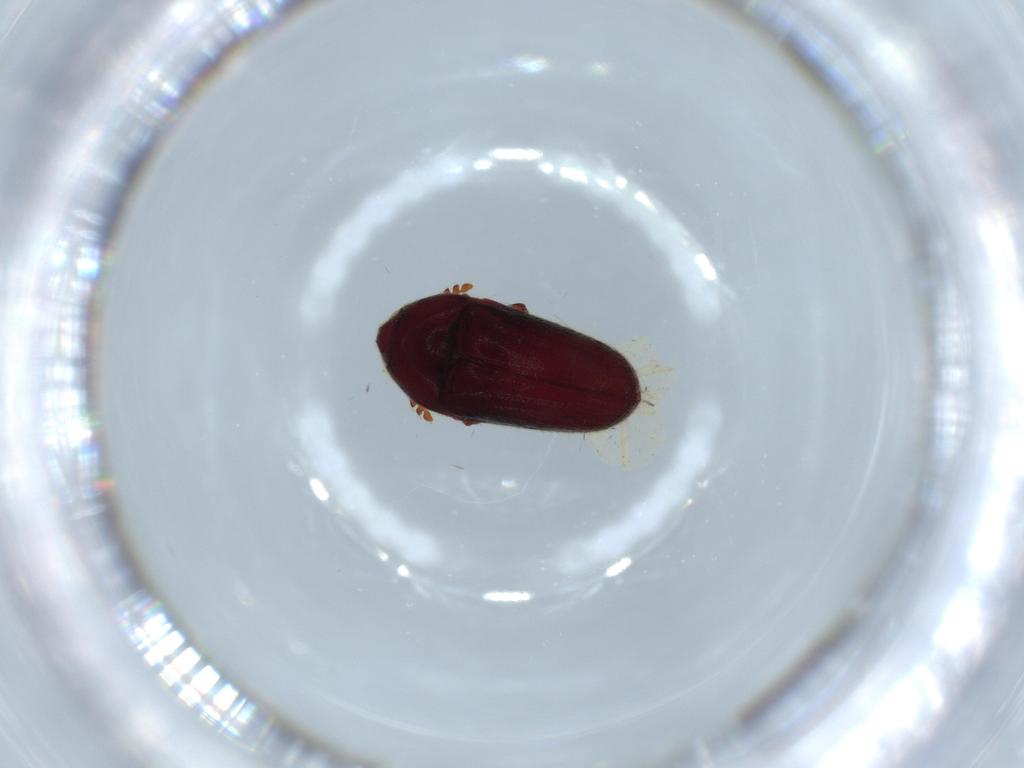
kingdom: Animalia
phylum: Arthropoda
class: Insecta
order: Coleoptera
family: Throscidae
